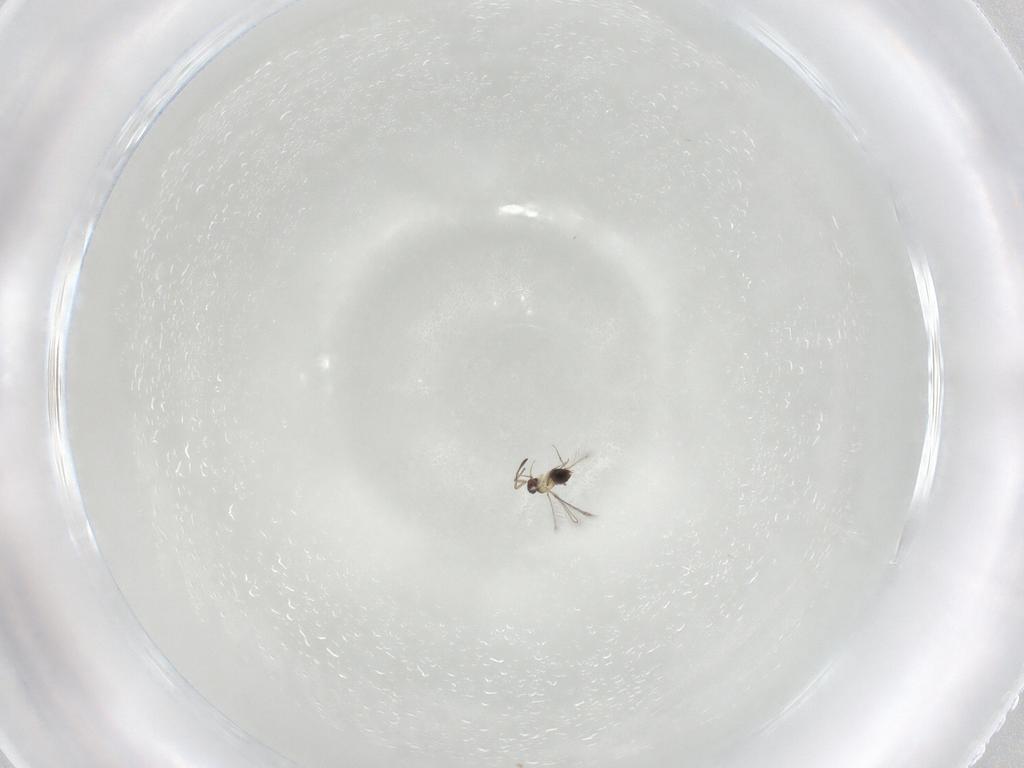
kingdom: Animalia
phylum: Arthropoda
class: Insecta
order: Hymenoptera
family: Mymaridae
